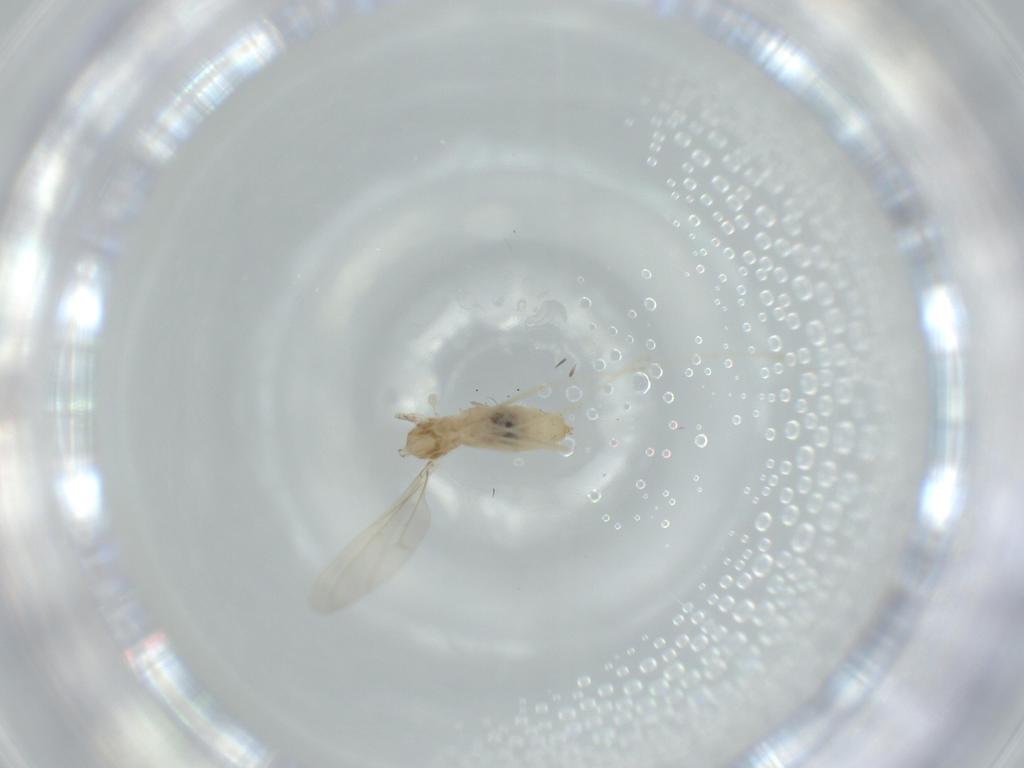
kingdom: Animalia
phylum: Arthropoda
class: Insecta
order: Diptera
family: Cecidomyiidae
